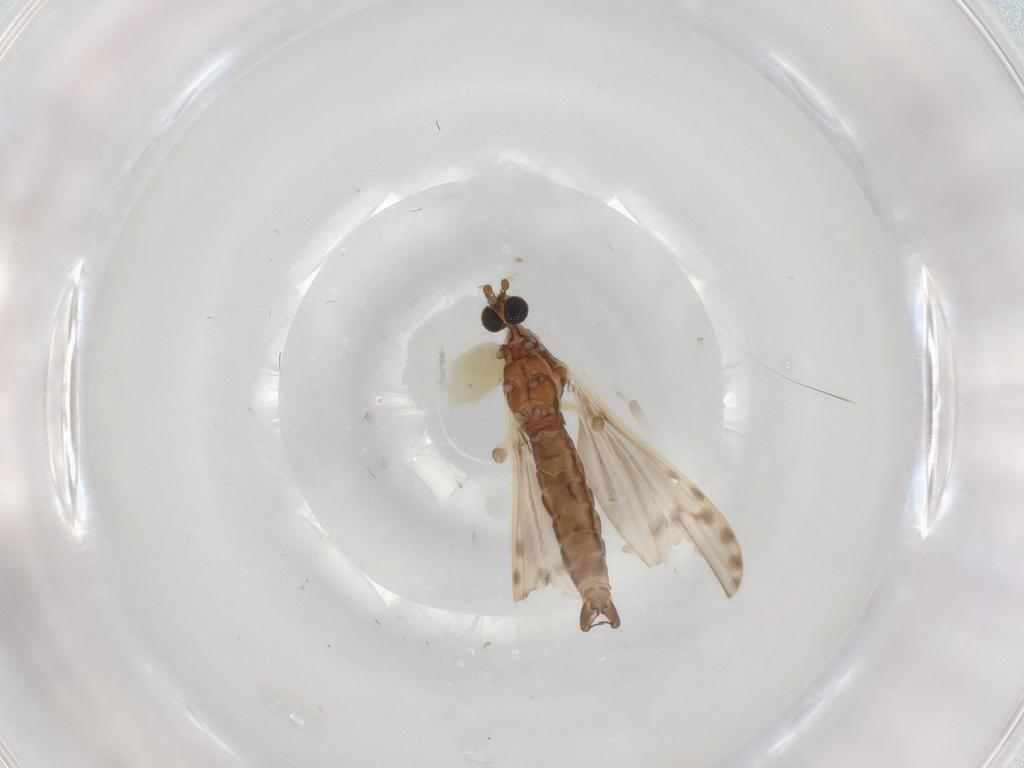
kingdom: Animalia
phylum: Arthropoda
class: Insecta
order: Diptera
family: Limoniidae
